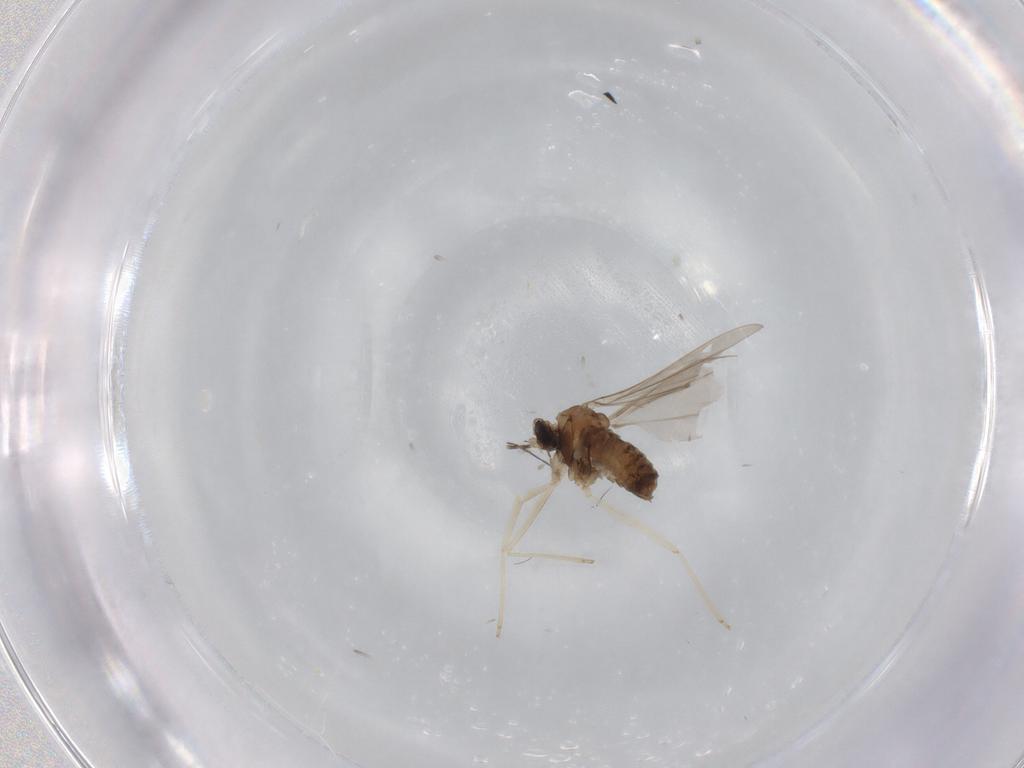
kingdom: Animalia
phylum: Arthropoda
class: Insecta
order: Diptera
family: Cecidomyiidae
